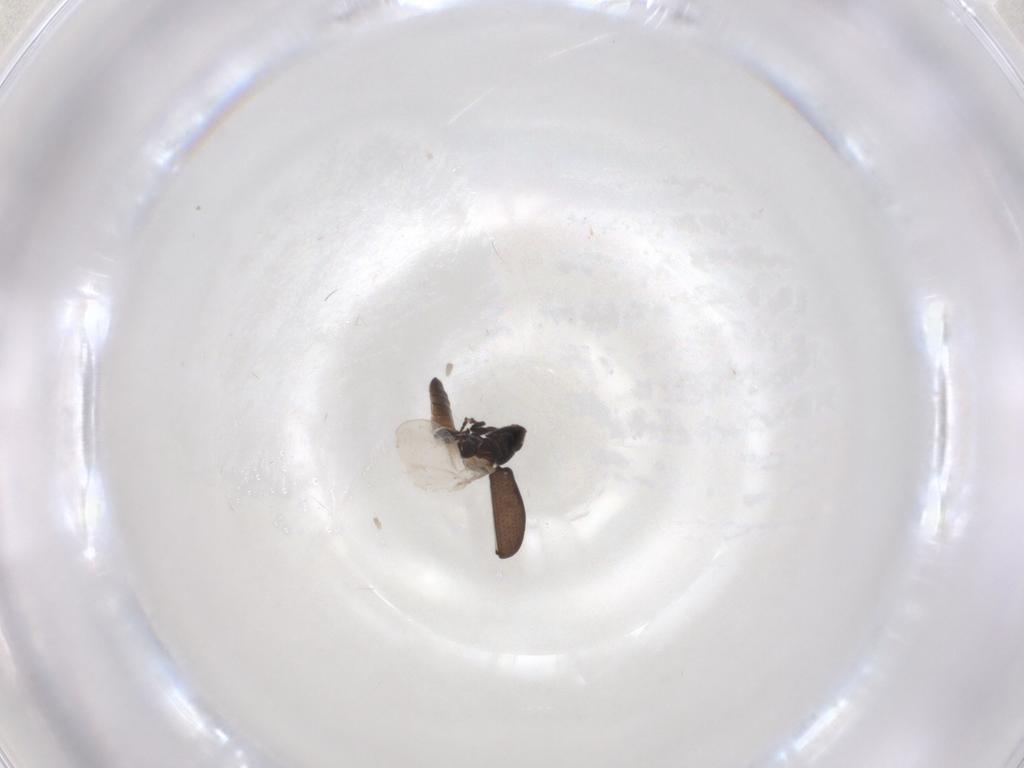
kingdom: Animalia
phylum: Arthropoda
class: Insecta
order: Coleoptera
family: Curculionidae
